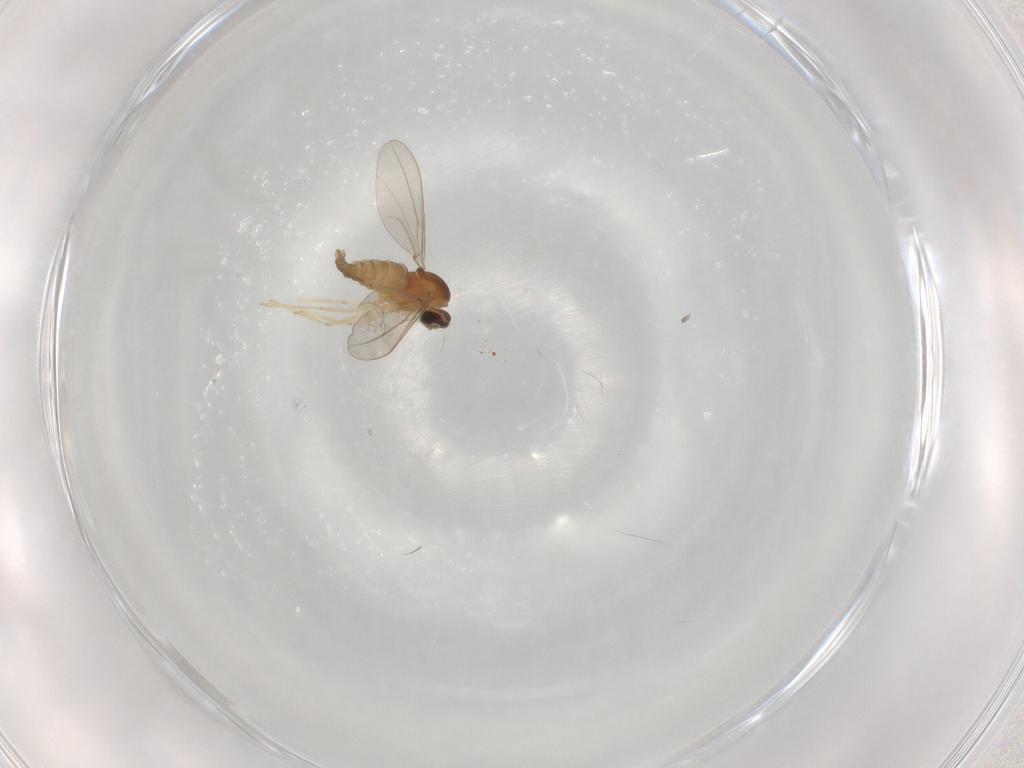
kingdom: Animalia
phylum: Arthropoda
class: Insecta
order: Diptera
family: Cecidomyiidae
